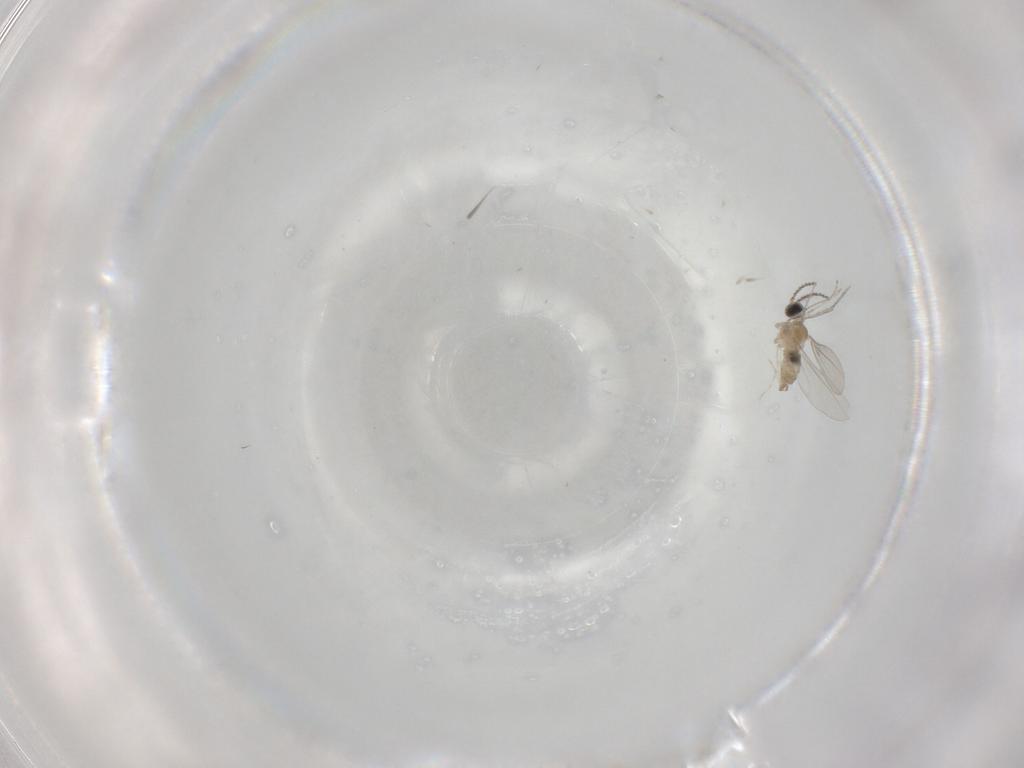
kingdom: Animalia
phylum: Arthropoda
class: Insecta
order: Diptera
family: Cecidomyiidae
